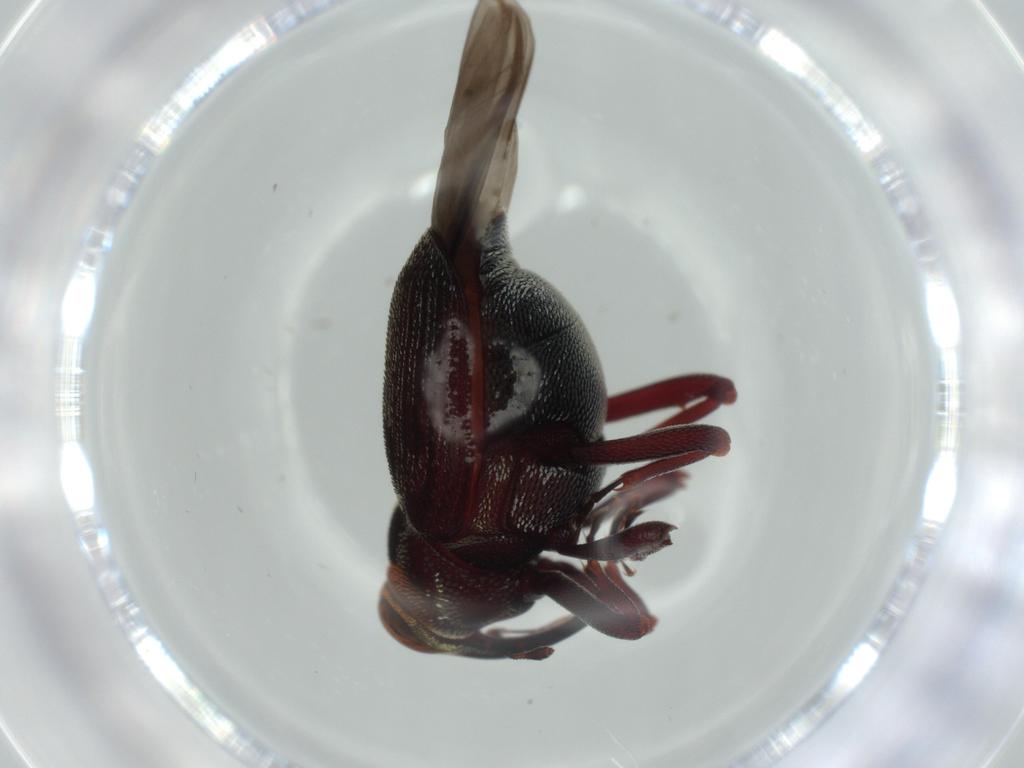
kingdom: Animalia
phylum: Arthropoda
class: Insecta
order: Coleoptera
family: Curculionidae
